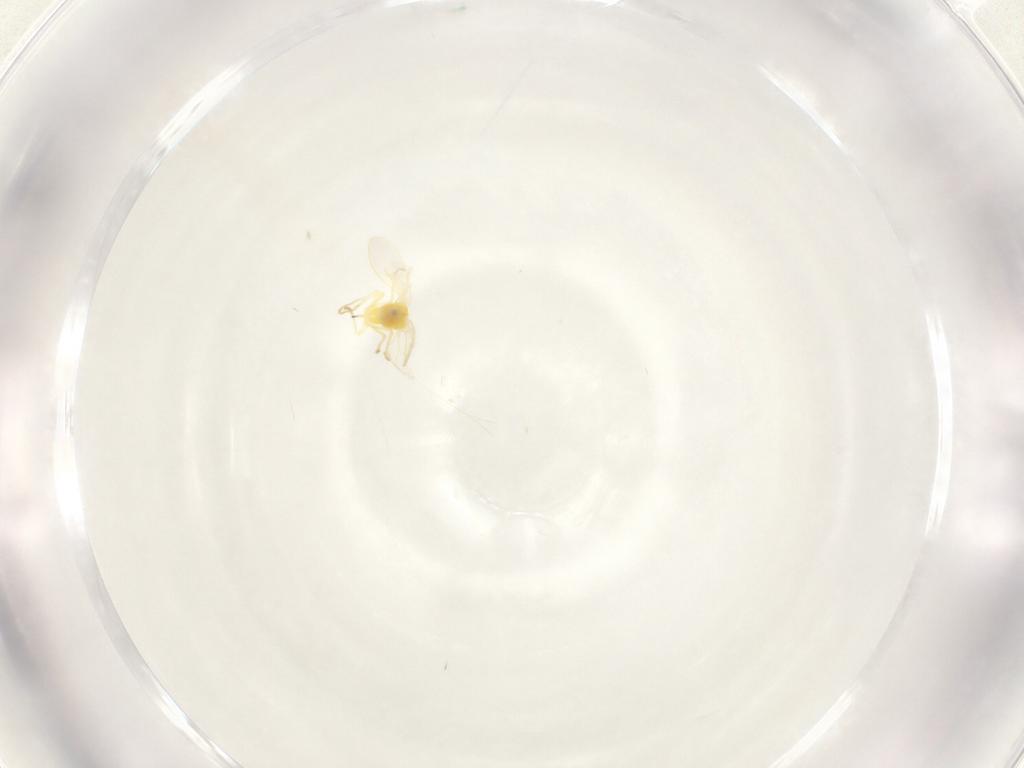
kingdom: Animalia
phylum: Arthropoda
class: Insecta
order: Hemiptera
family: Aleyrodidae
